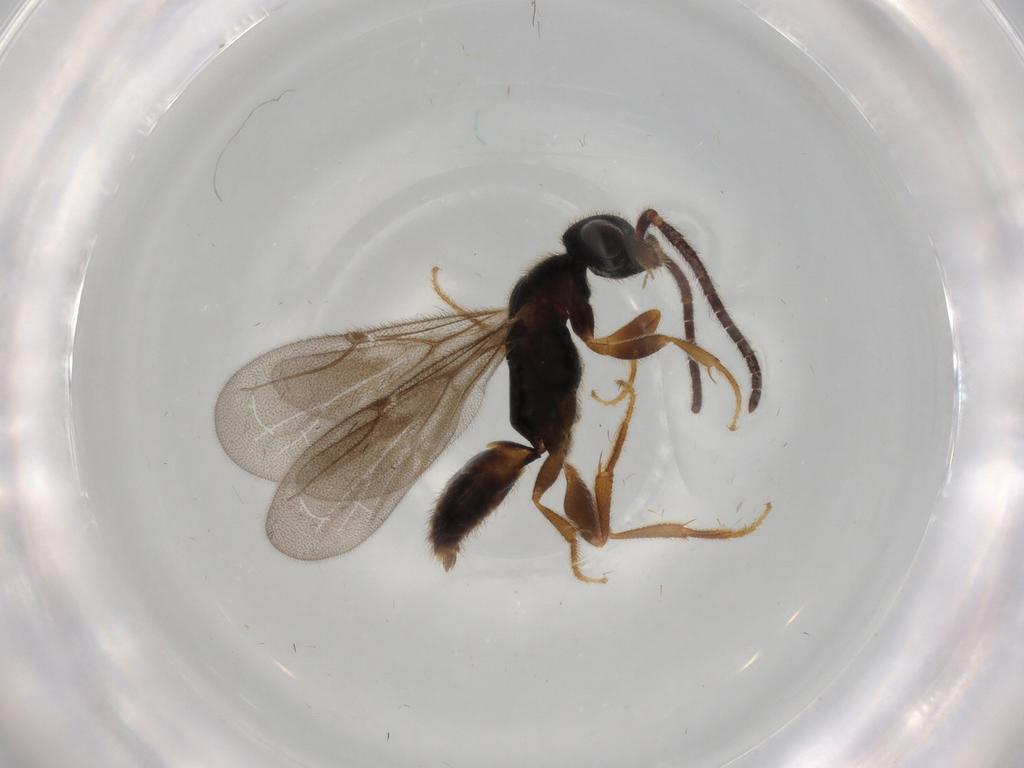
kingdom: Animalia
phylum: Arthropoda
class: Insecta
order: Hymenoptera
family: Bethylidae
